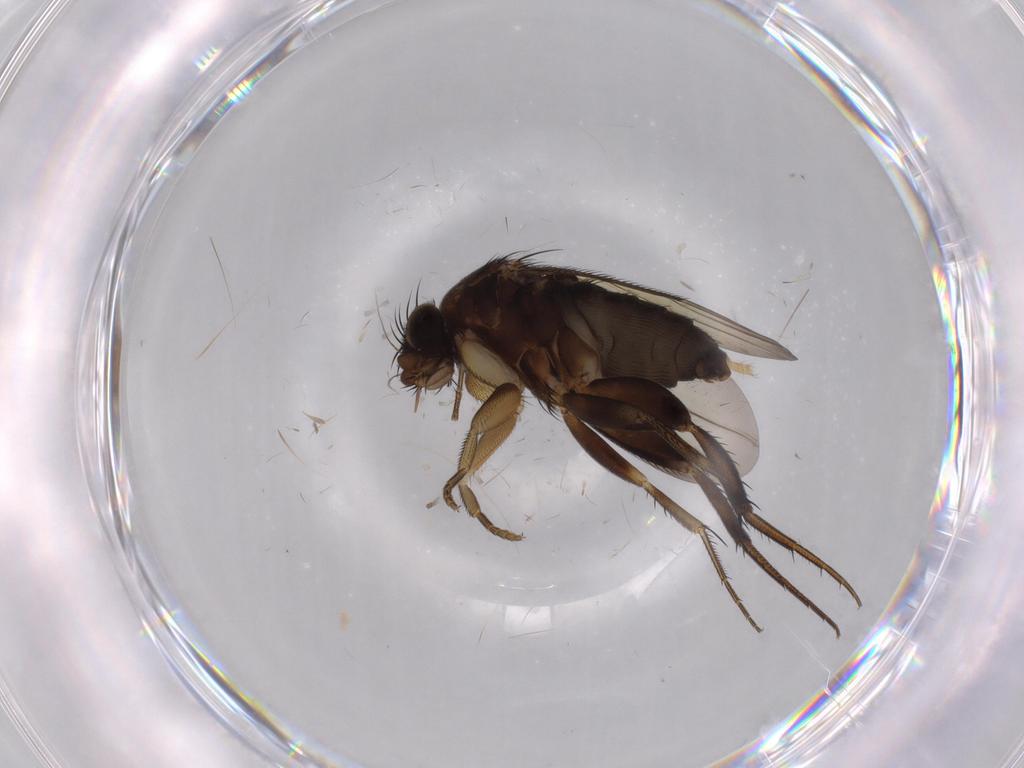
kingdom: Animalia
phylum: Arthropoda
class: Insecta
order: Diptera
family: Phoridae
